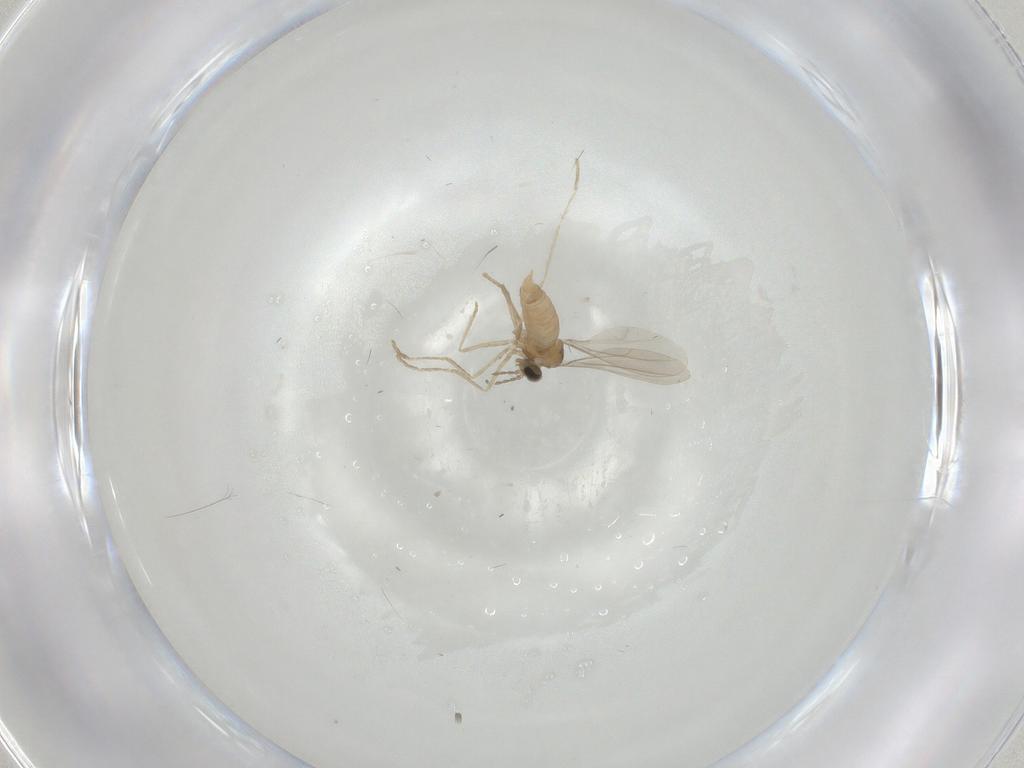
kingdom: Animalia
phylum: Arthropoda
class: Insecta
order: Diptera
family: Cecidomyiidae
